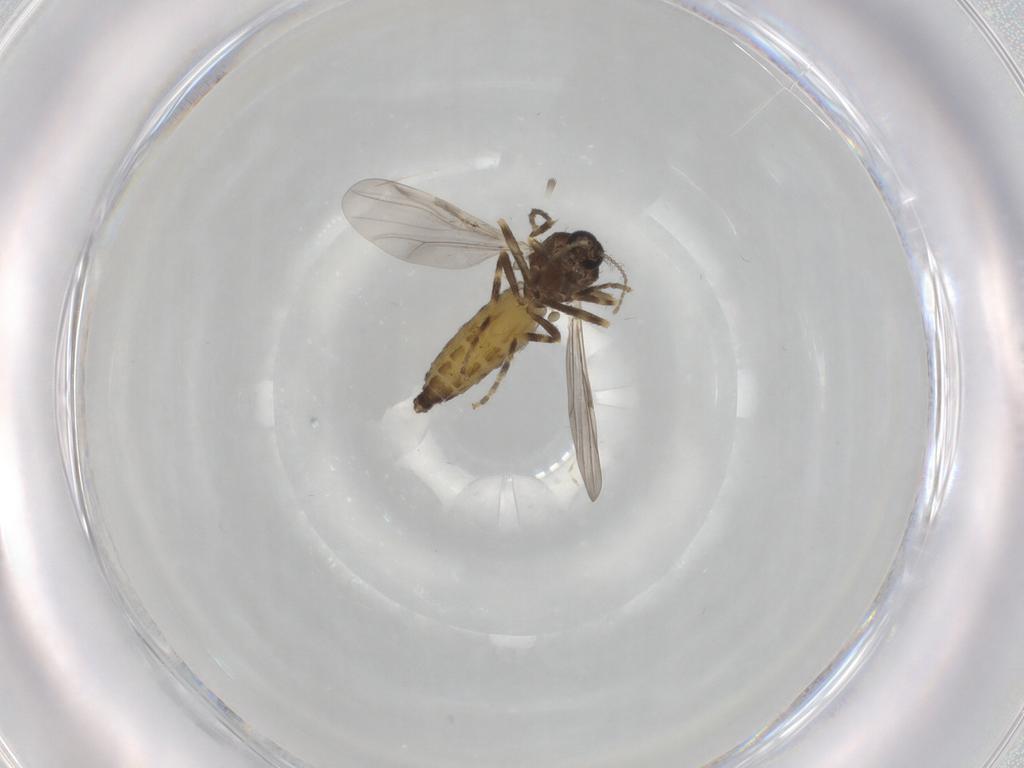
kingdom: Animalia
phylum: Arthropoda
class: Insecta
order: Diptera
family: Ceratopogonidae
